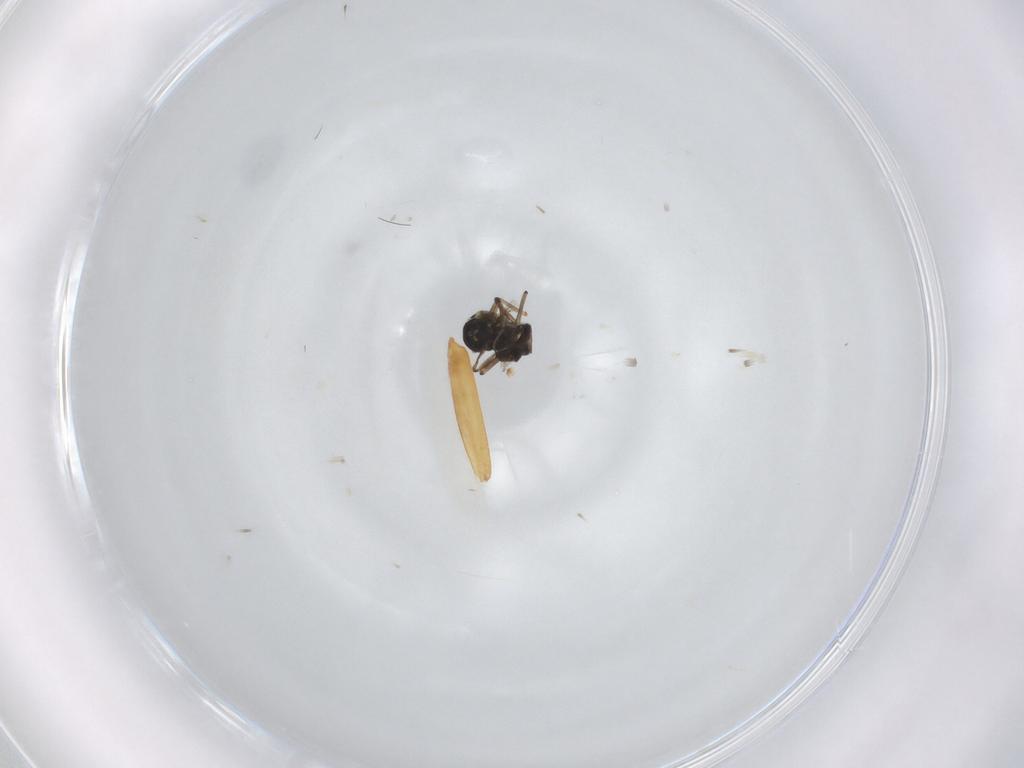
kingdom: Animalia
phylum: Arthropoda
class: Insecta
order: Diptera
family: Ceratopogonidae
